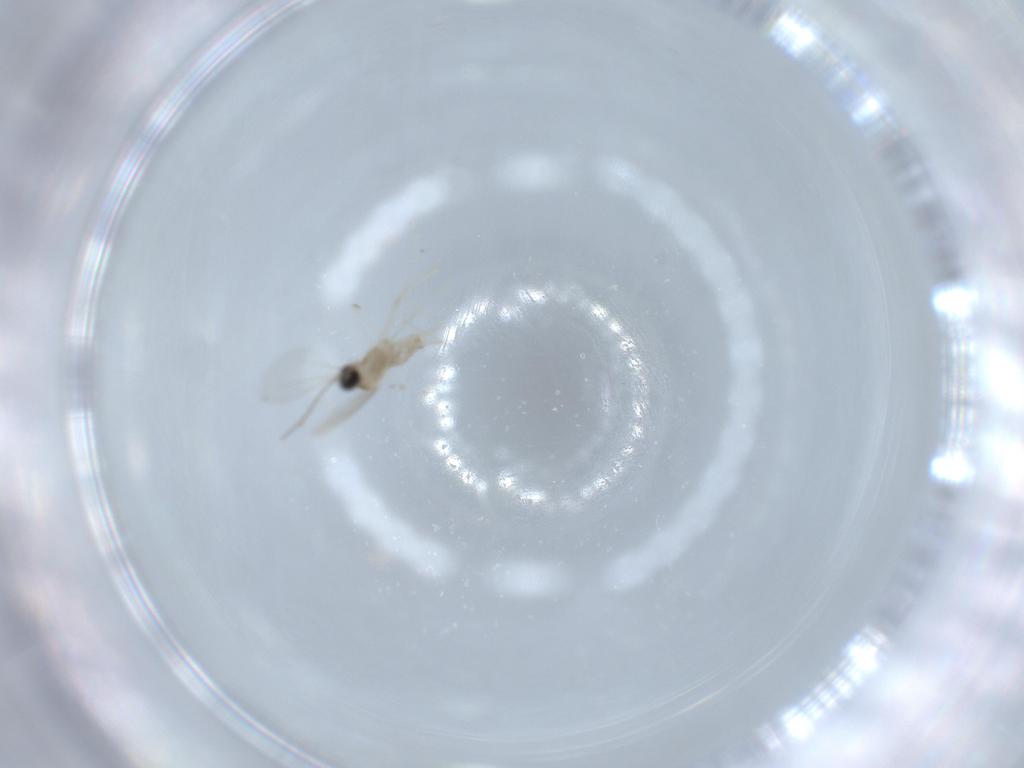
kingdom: Animalia
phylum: Arthropoda
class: Insecta
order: Diptera
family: Cecidomyiidae
